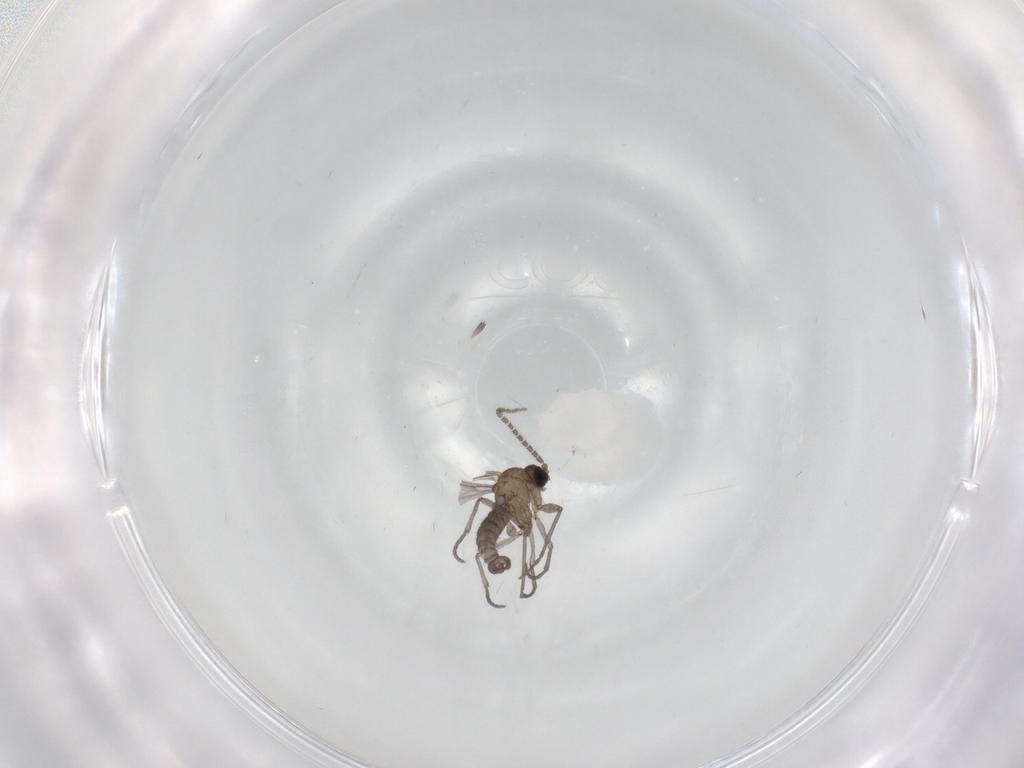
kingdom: Animalia
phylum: Arthropoda
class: Insecta
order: Diptera
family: Sciaridae
